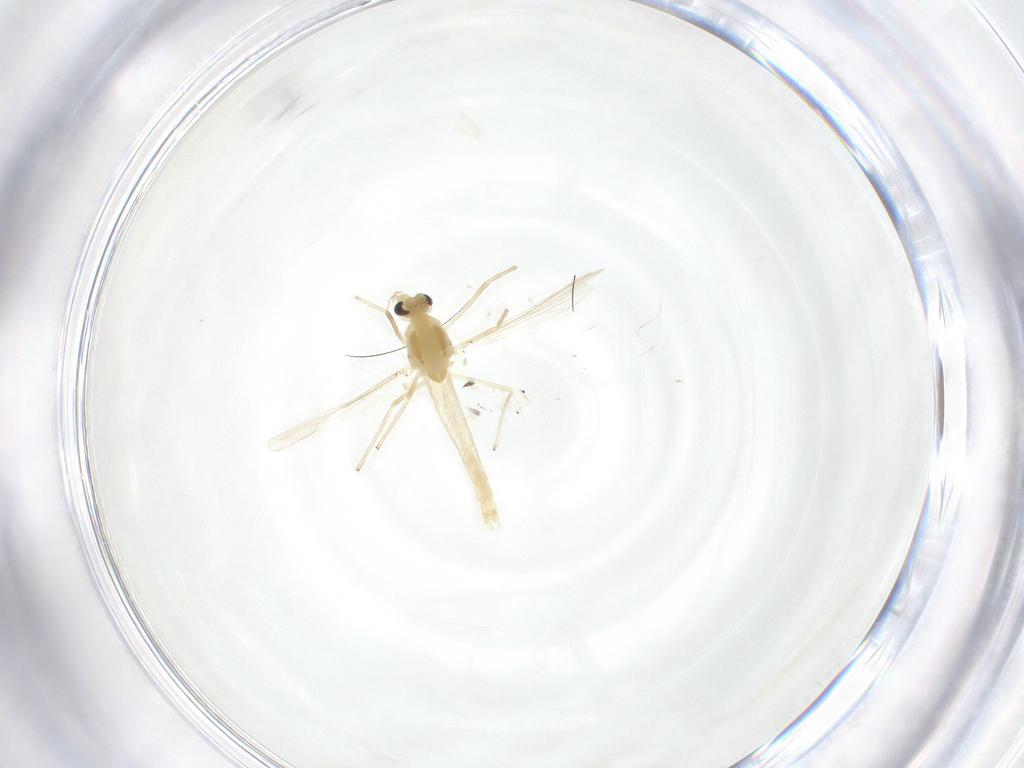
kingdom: Animalia
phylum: Arthropoda
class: Insecta
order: Diptera
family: Chironomidae
